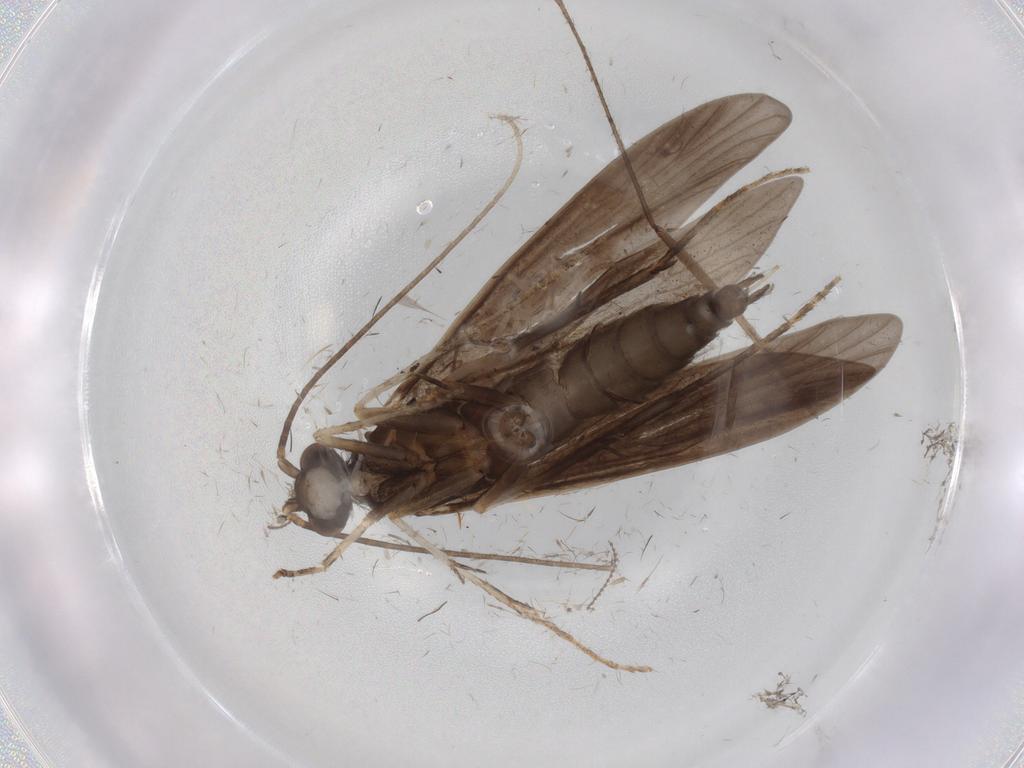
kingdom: Animalia
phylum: Arthropoda
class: Insecta
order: Trichoptera
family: Xiphocentronidae
